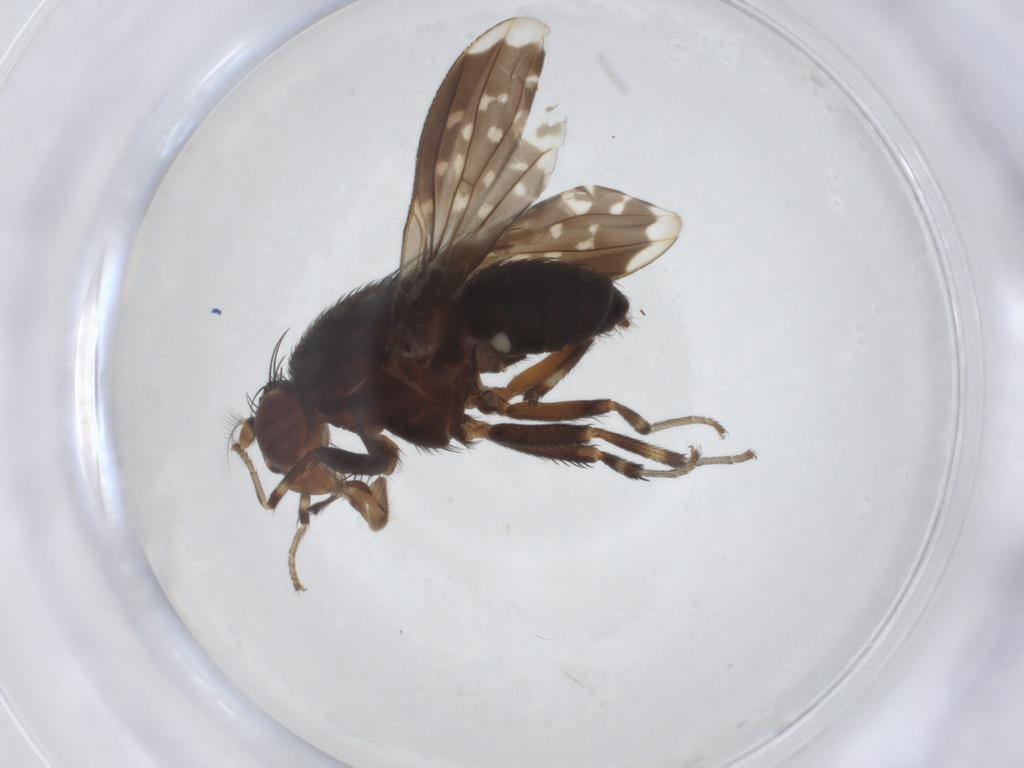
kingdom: Animalia
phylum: Arthropoda
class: Insecta
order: Diptera
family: Lauxaniidae
